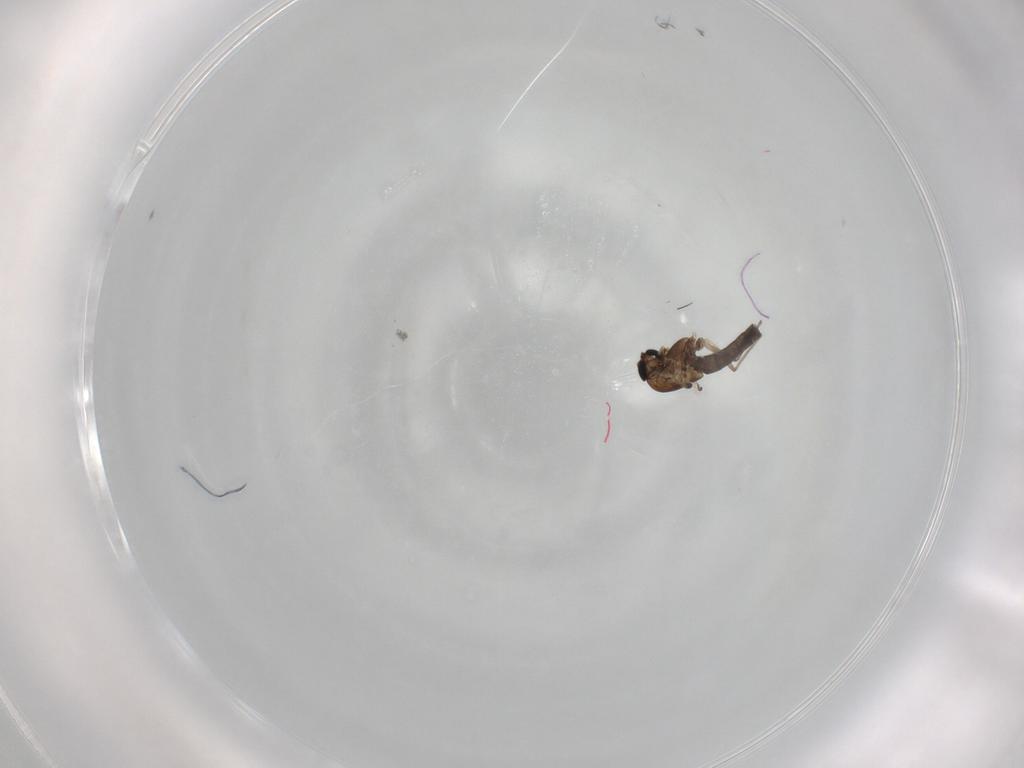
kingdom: Animalia
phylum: Arthropoda
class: Insecta
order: Diptera
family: Chironomidae
